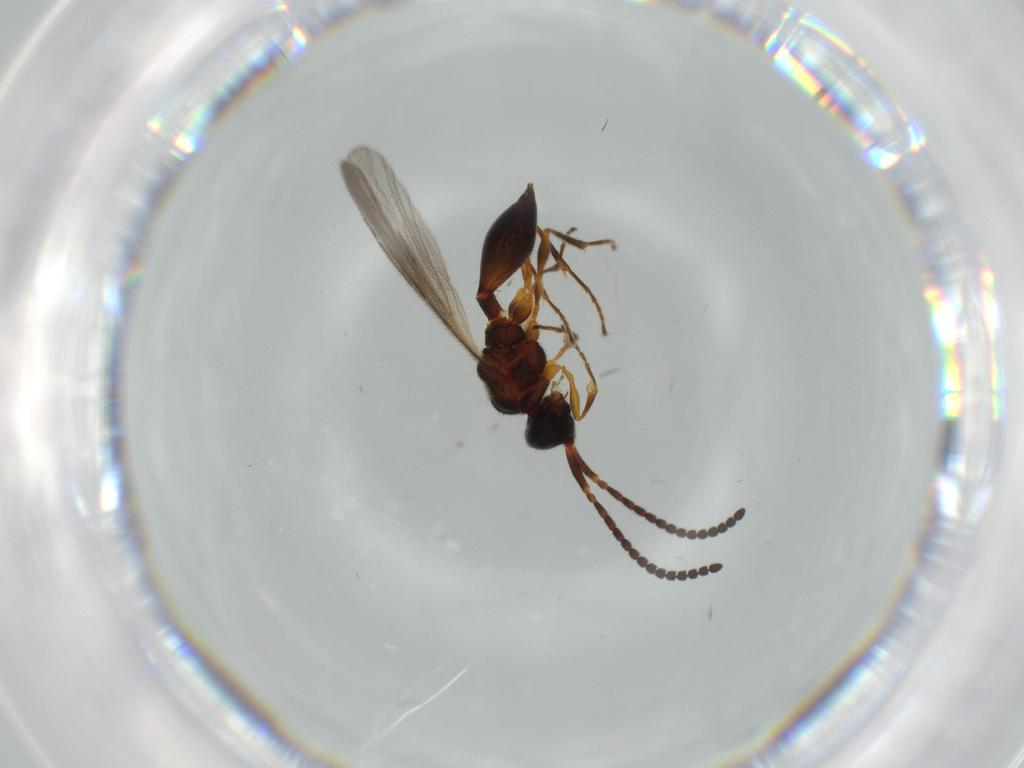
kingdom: Animalia
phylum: Arthropoda
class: Insecta
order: Hymenoptera
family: Diapriidae
